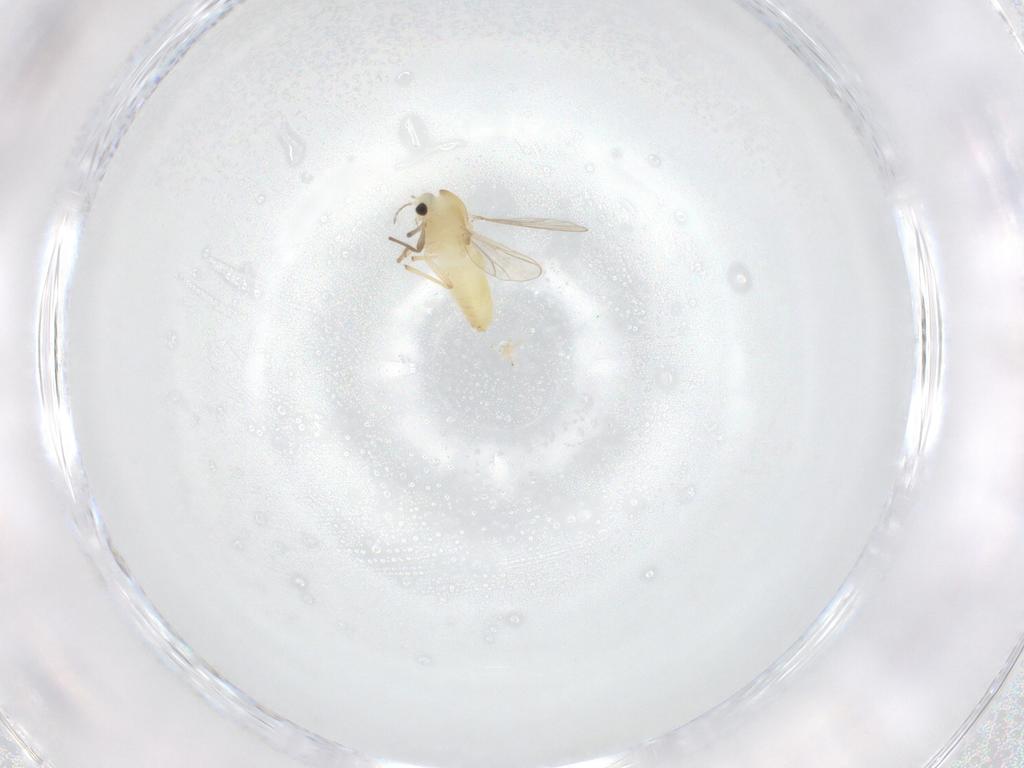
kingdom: Animalia
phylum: Arthropoda
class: Insecta
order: Diptera
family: Chironomidae
